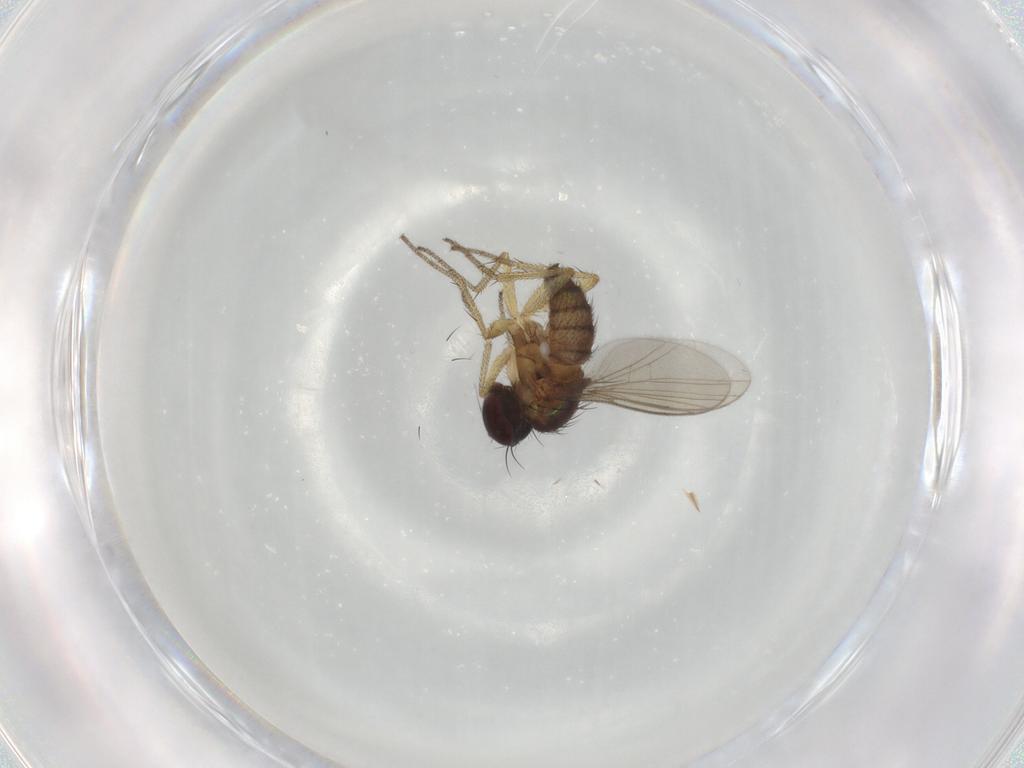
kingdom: Animalia
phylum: Arthropoda
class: Insecta
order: Diptera
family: Dolichopodidae
